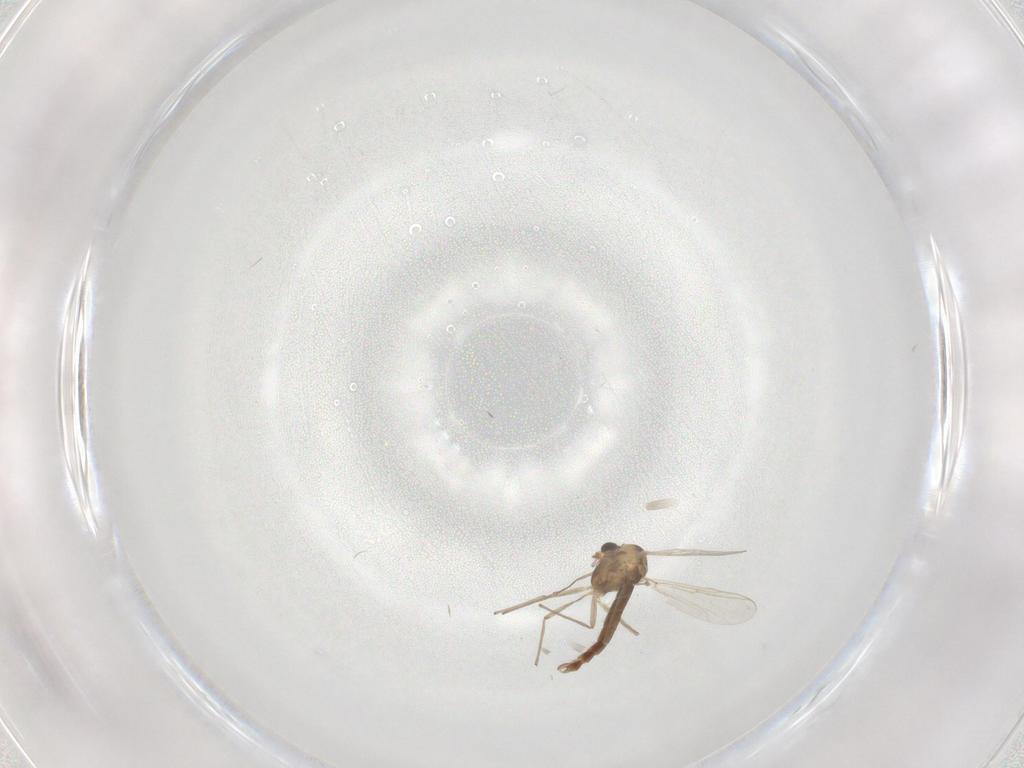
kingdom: Animalia
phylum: Arthropoda
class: Insecta
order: Diptera
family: Chironomidae
